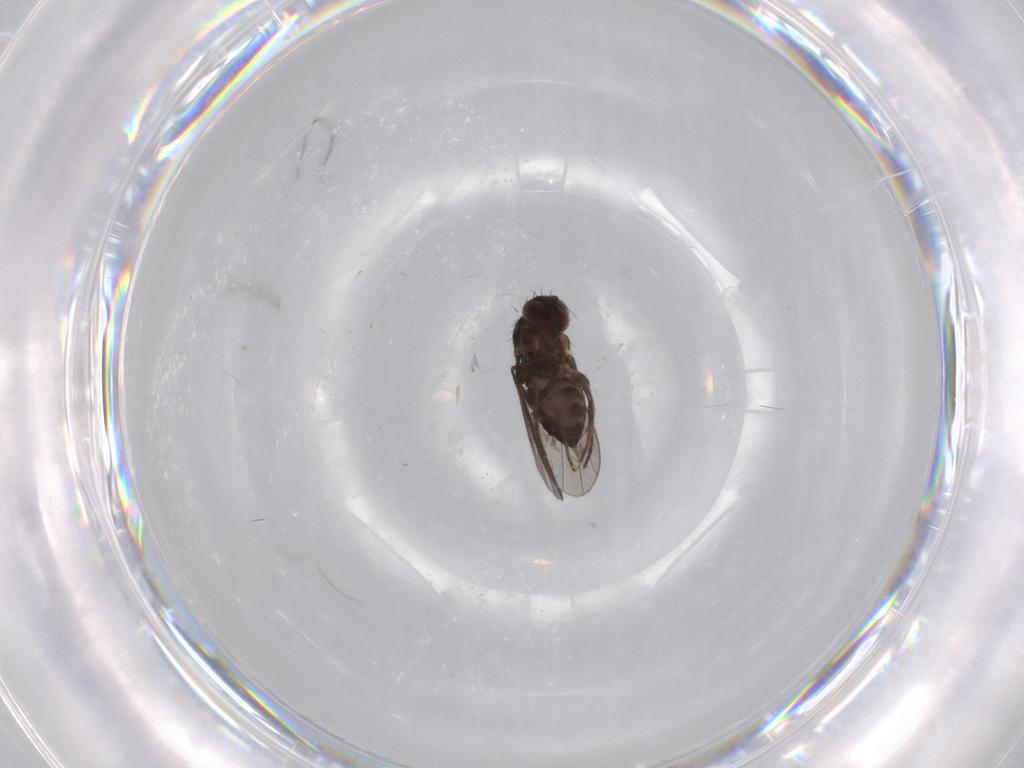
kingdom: Animalia
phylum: Arthropoda
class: Insecta
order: Diptera
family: Dolichopodidae
